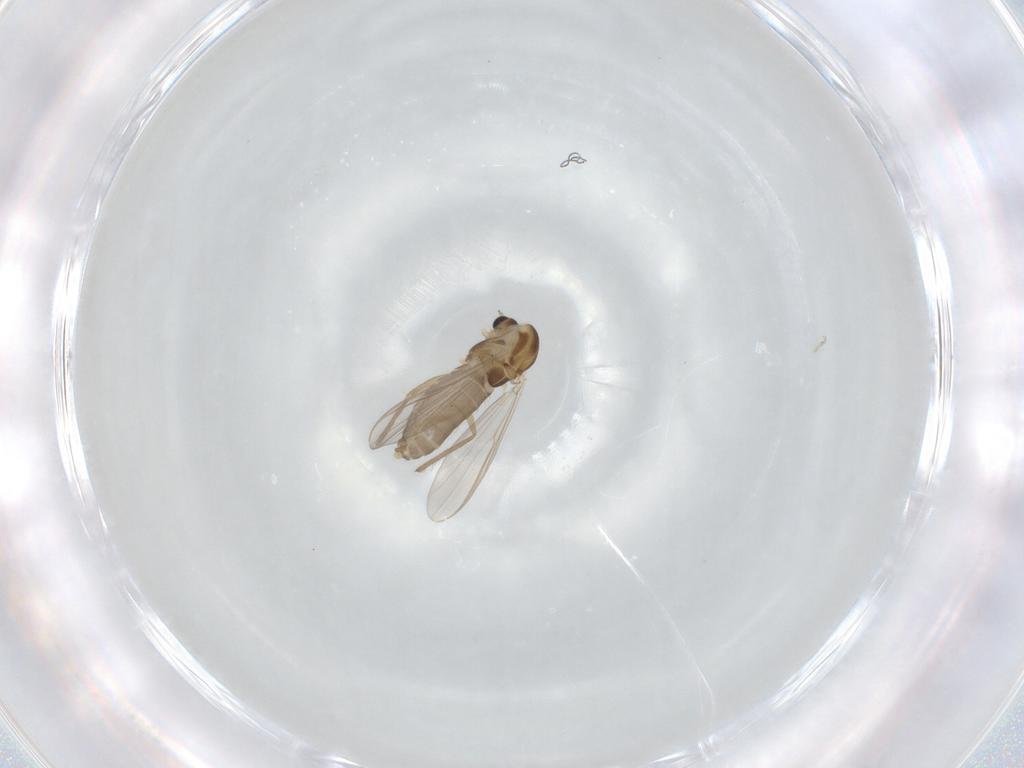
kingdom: Animalia
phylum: Arthropoda
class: Insecta
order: Diptera
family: Chironomidae
